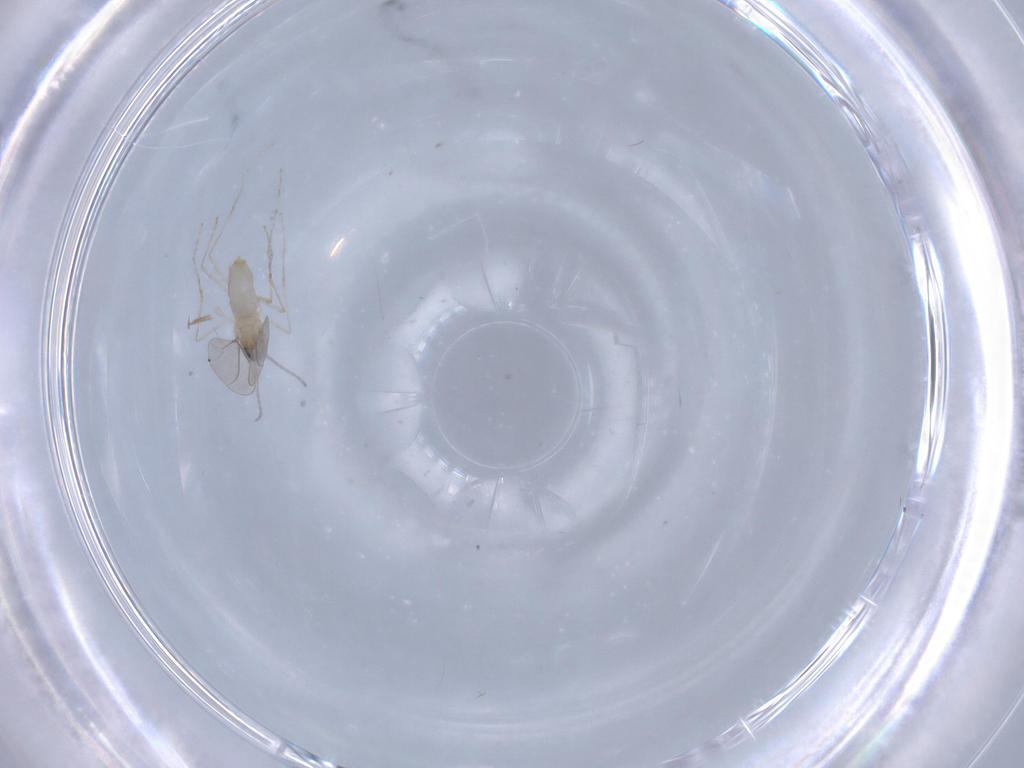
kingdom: Animalia
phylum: Arthropoda
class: Insecta
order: Diptera
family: Cecidomyiidae
